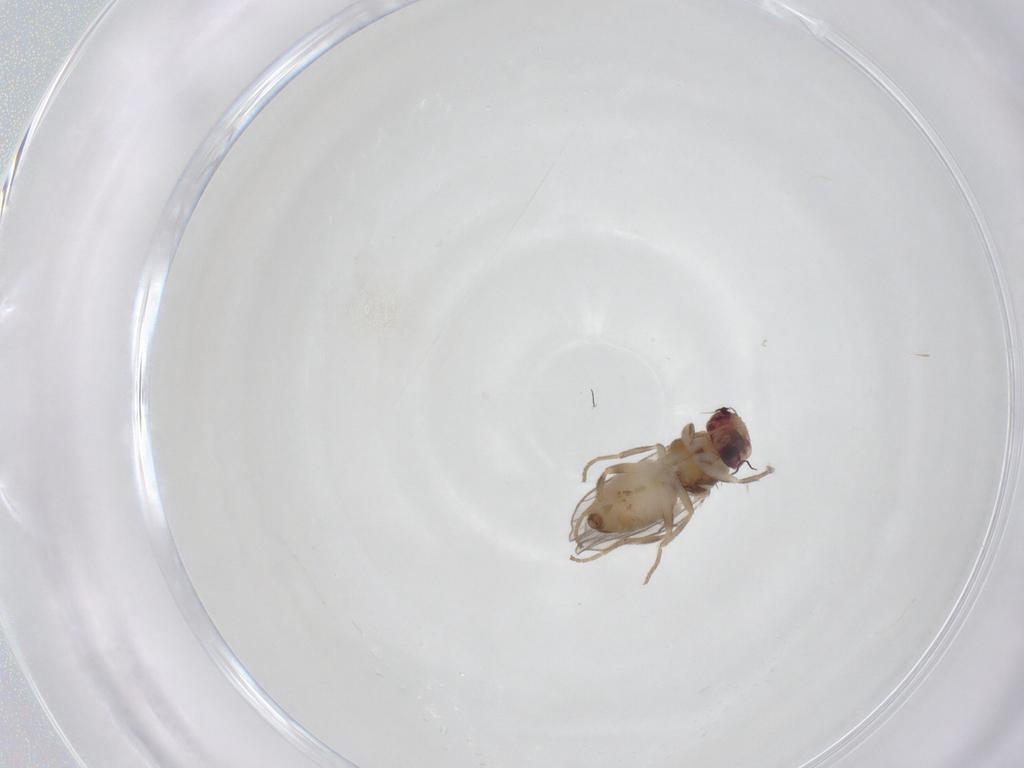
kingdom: Animalia
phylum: Arthropoda
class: Insecta
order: Diptera
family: Chloropidae
